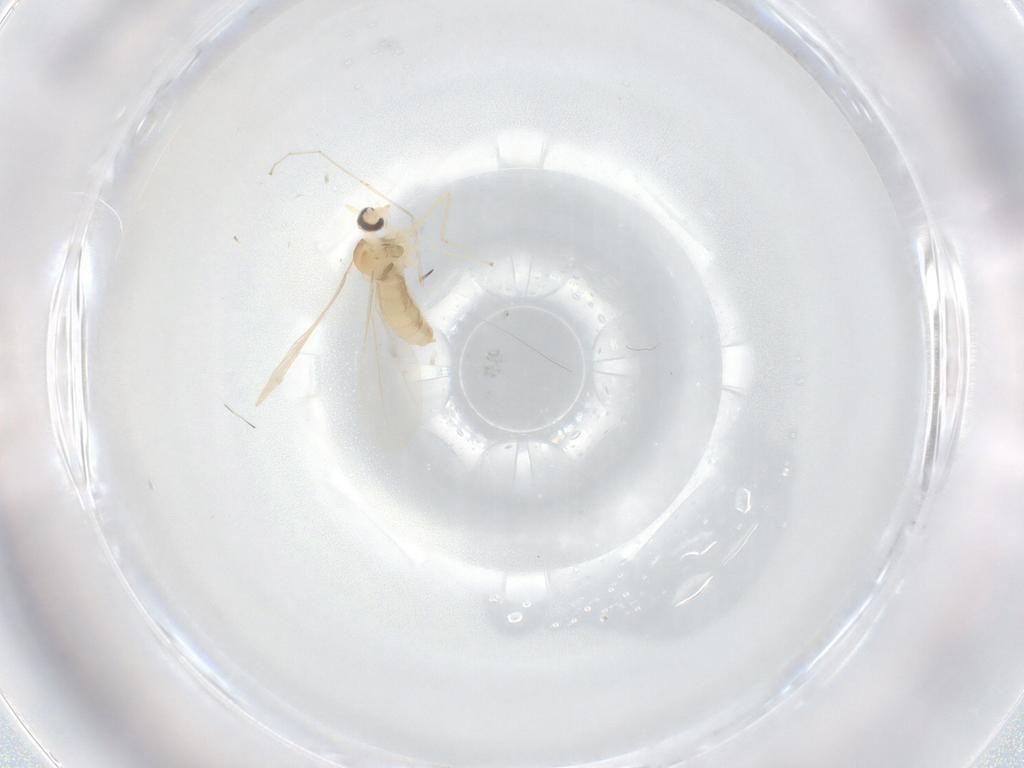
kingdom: Animalia
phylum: Arthropoda
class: Insecta
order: Diptera
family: Cecidomyiidae
